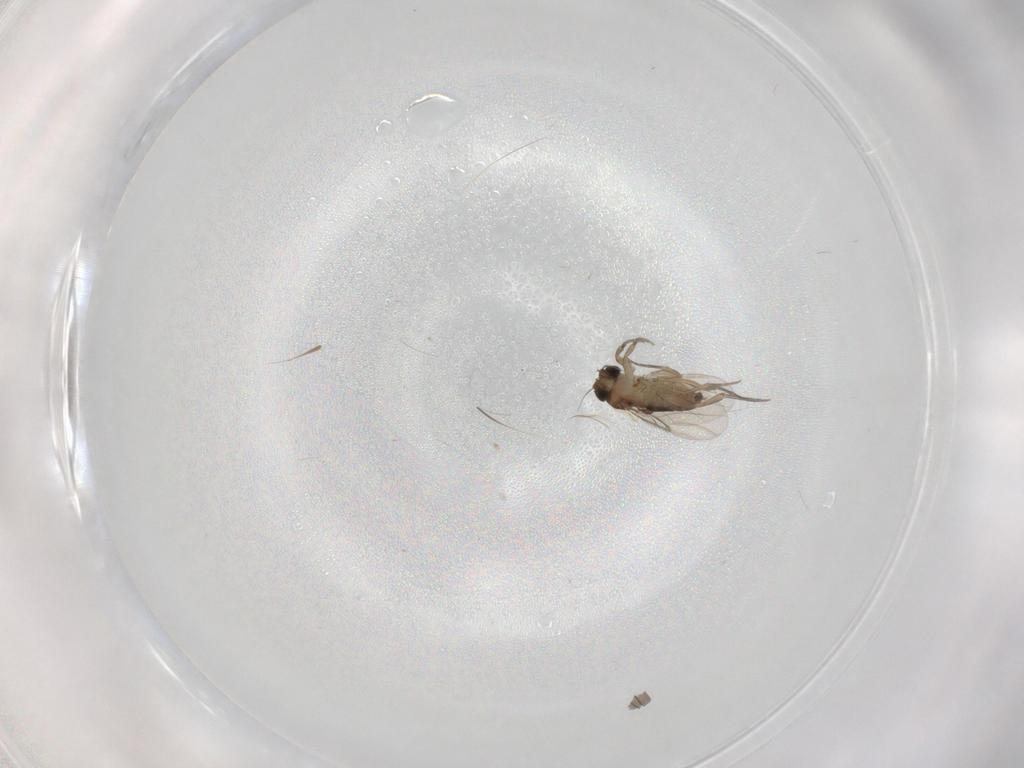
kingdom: Animalia
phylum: Arthropoda
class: Insecta
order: Diptera
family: Phoridae
